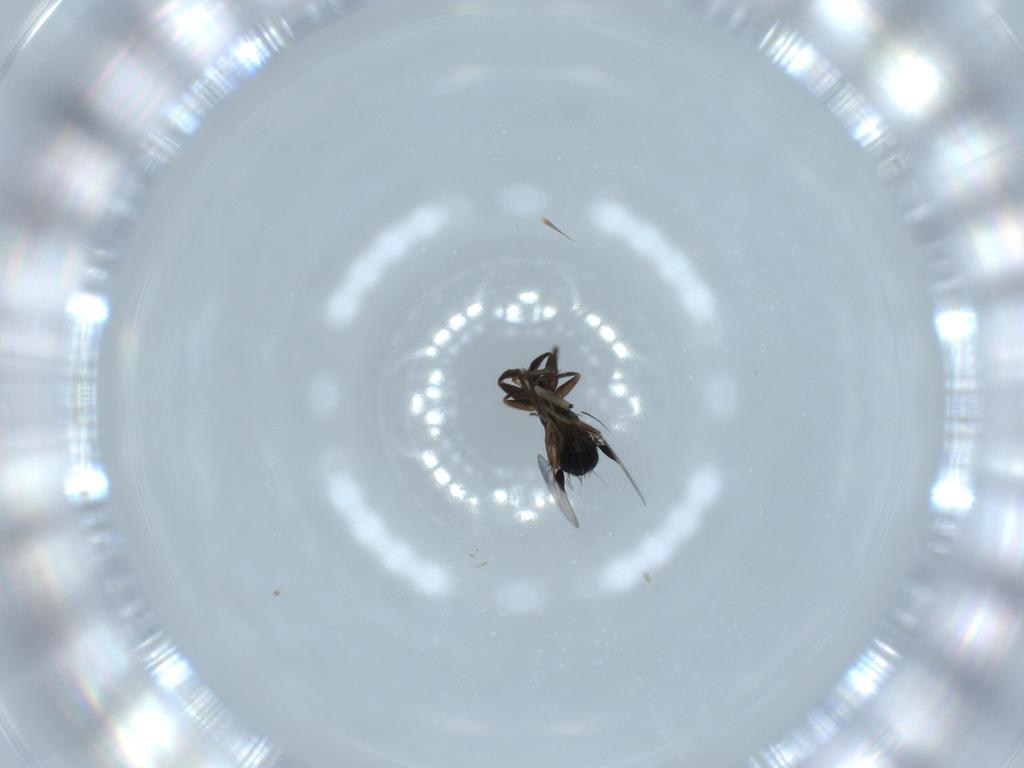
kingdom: Animalia
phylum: Arthropoda
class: Insecta
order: Diptera
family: Sciaridae
